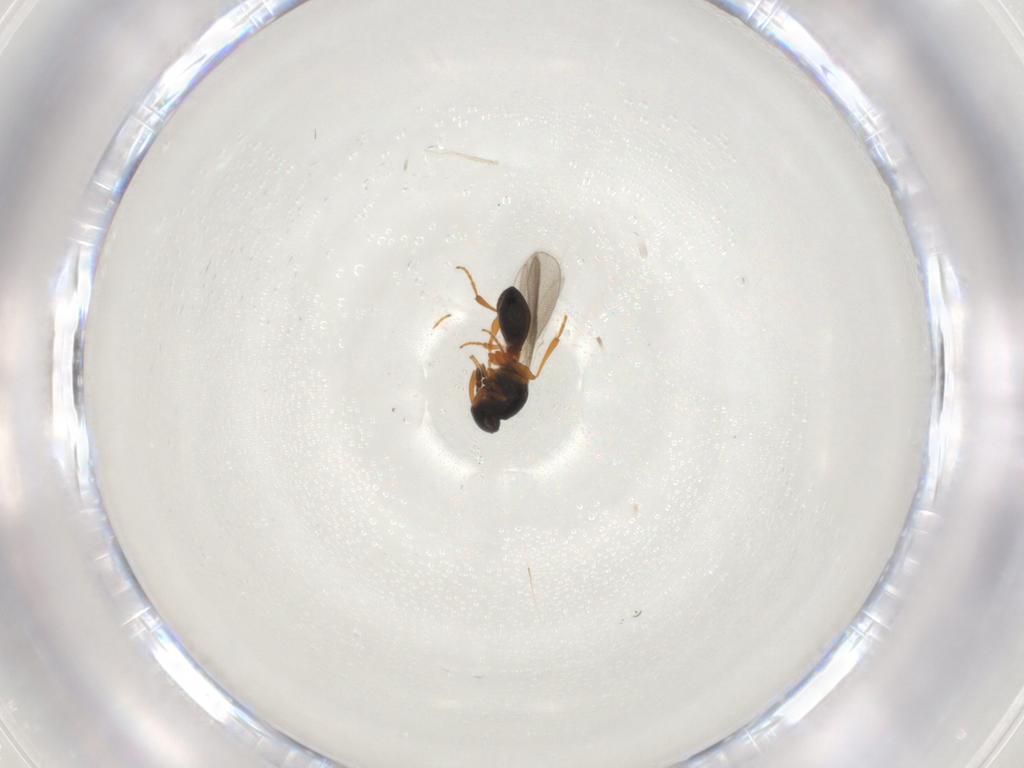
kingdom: Animalia
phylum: Arthropoda
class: Insecta
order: Hymenoptera
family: Platygastridae
